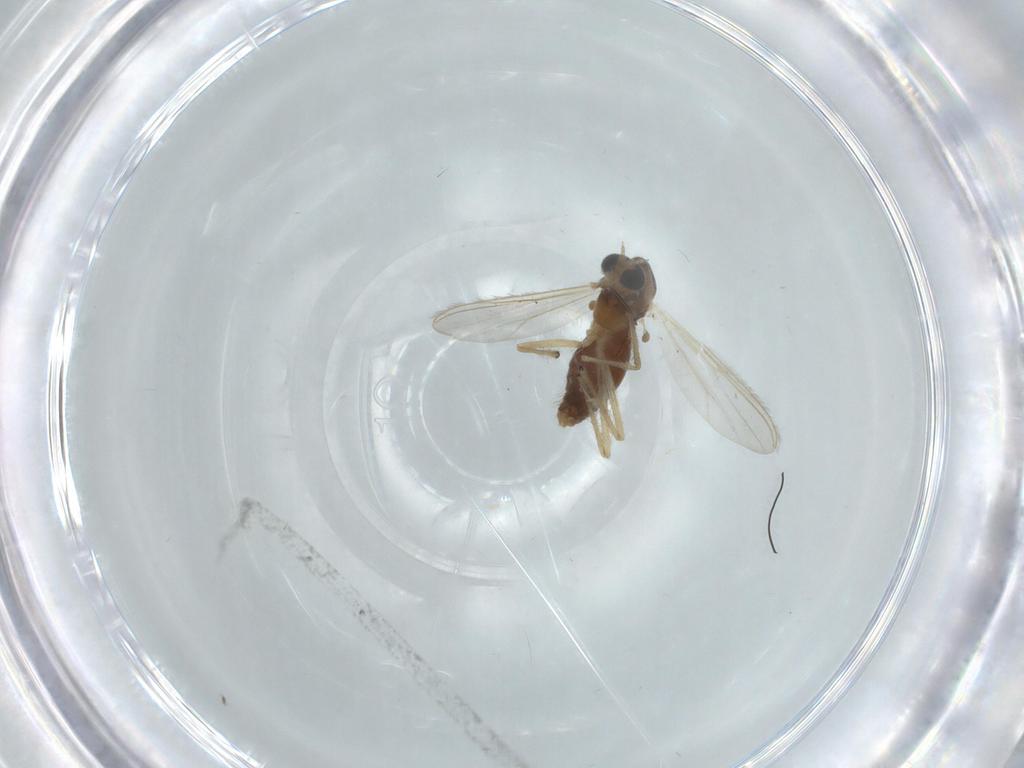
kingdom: Animalia
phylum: Arthropoda
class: Insecta
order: Diptera
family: Chironomidae
